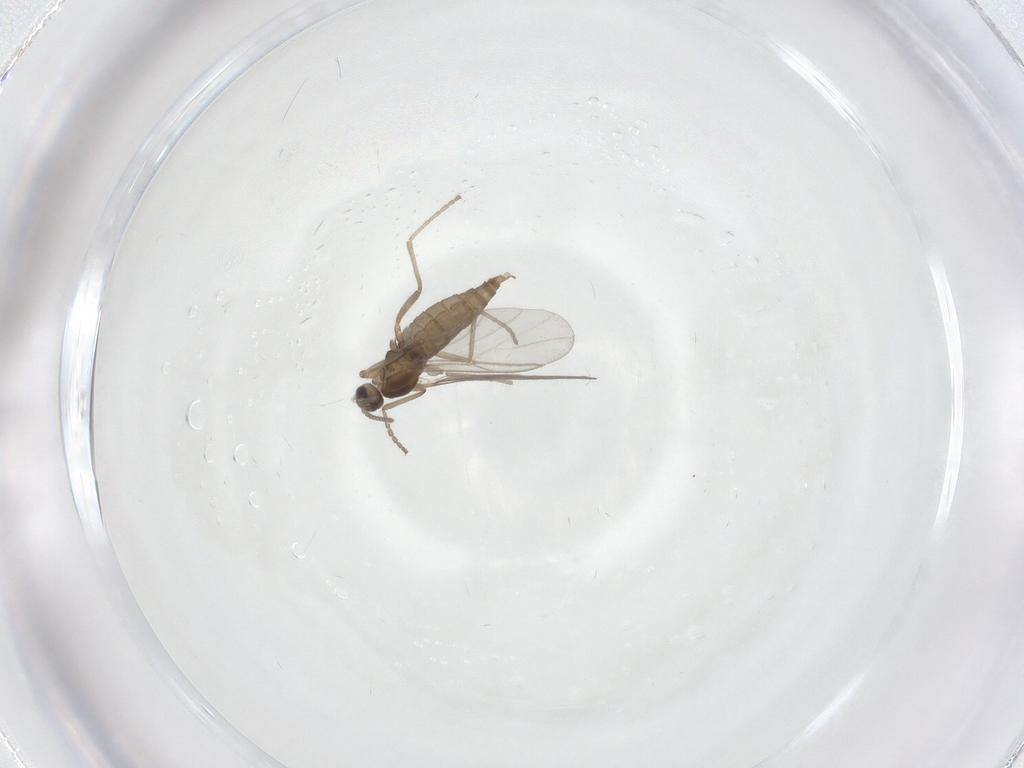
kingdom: Animalia
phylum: Arthropoda
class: Insecta
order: Diptera
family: Cecidomyiidae
